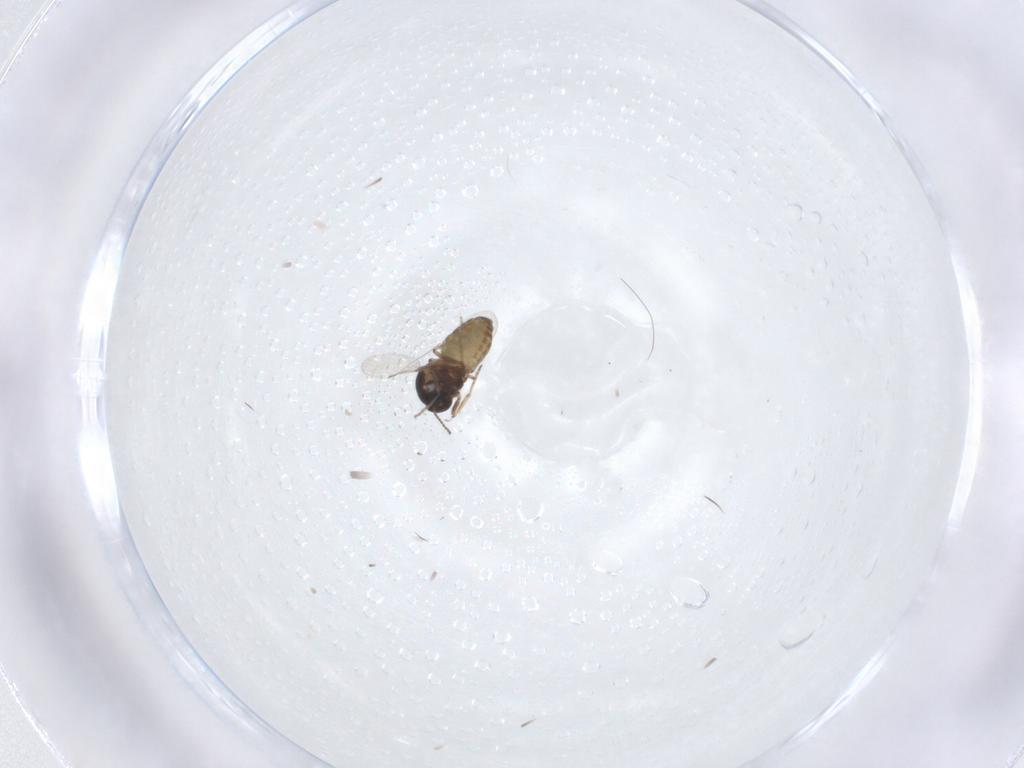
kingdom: Animalia
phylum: Arthropoda
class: Insecta
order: Diptera
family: Ceratopogonidae
